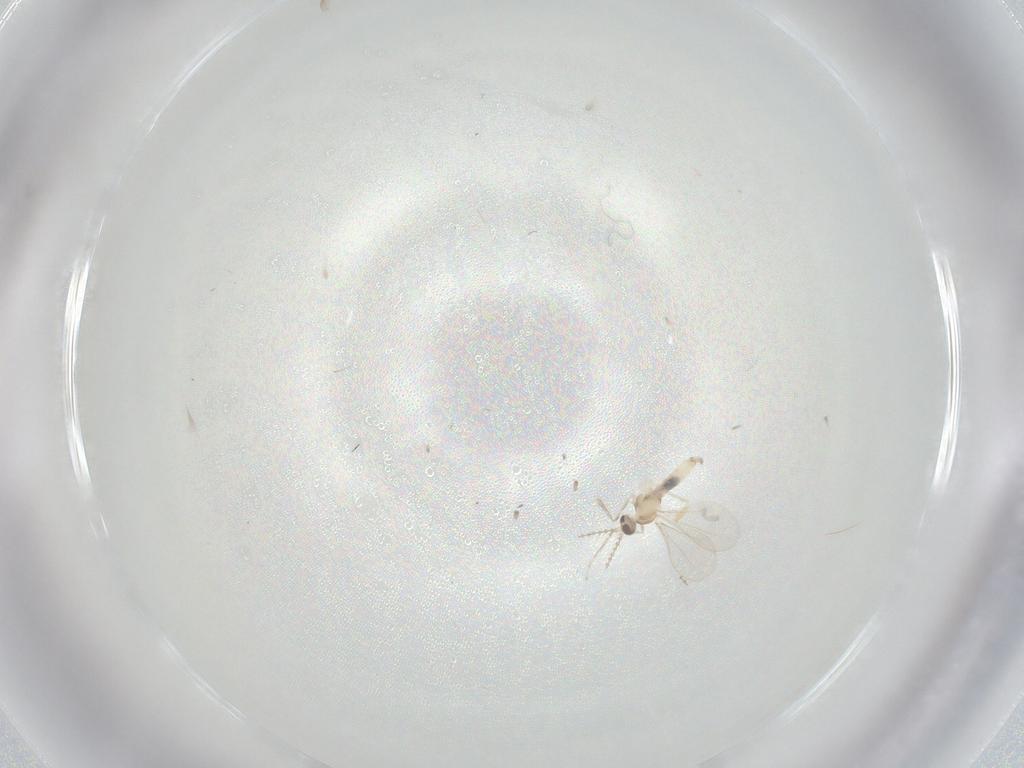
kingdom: Animalia
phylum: Arthropoda
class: Insecta
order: Diptera
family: Cecidomyiidae
